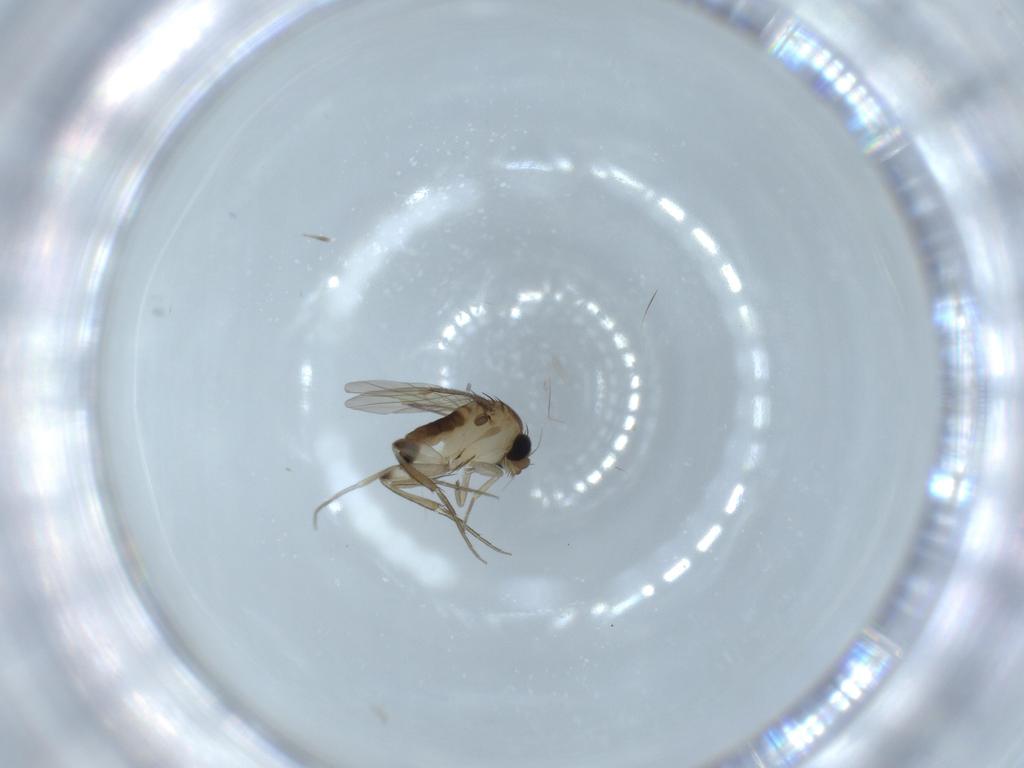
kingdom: Animalia
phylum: Arthropoda
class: Insecta
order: Diptera
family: Phoridae
